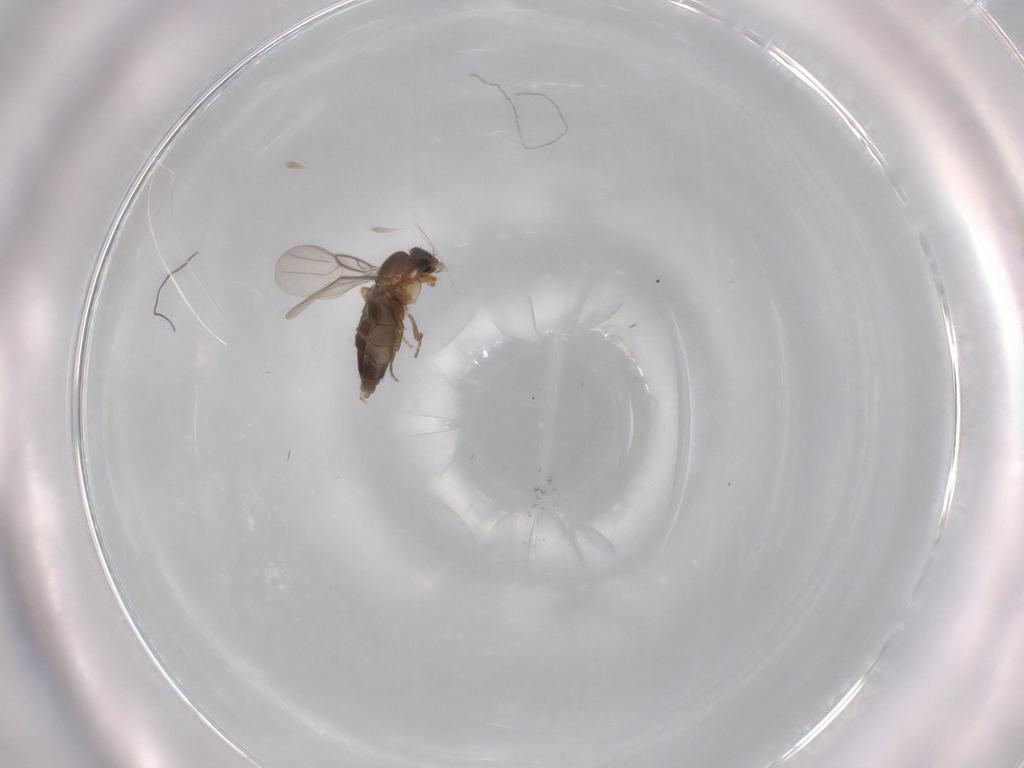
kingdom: Animalia
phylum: Arthropoda
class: Insecta
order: Diptera
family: Phoridae
